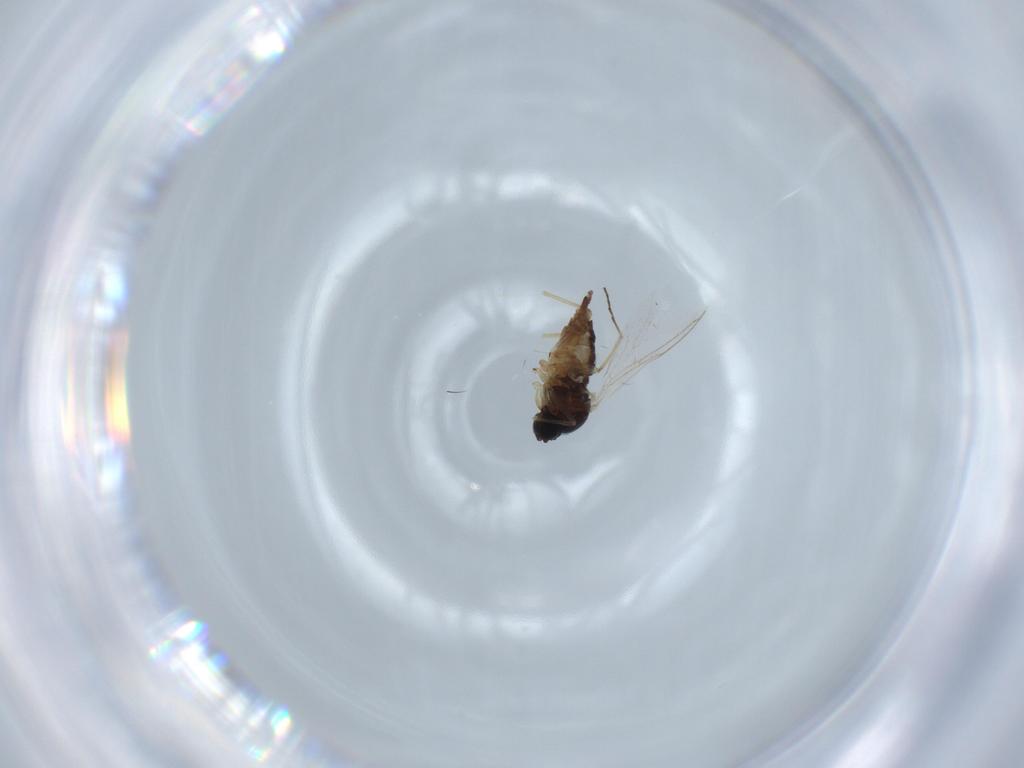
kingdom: Animalia
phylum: Arthropoda
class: Insecta
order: Diptera
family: Sciaridae
